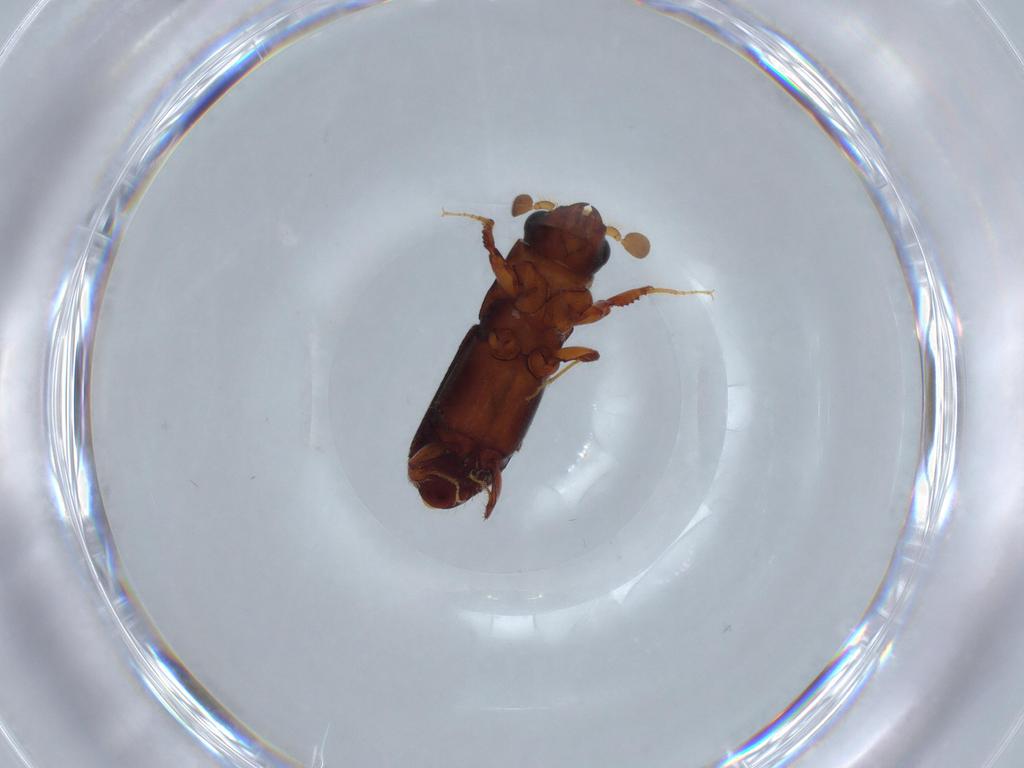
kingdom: Animalia
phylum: Arthropoda
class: Insecta
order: Coleoptera
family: Curculionidae
